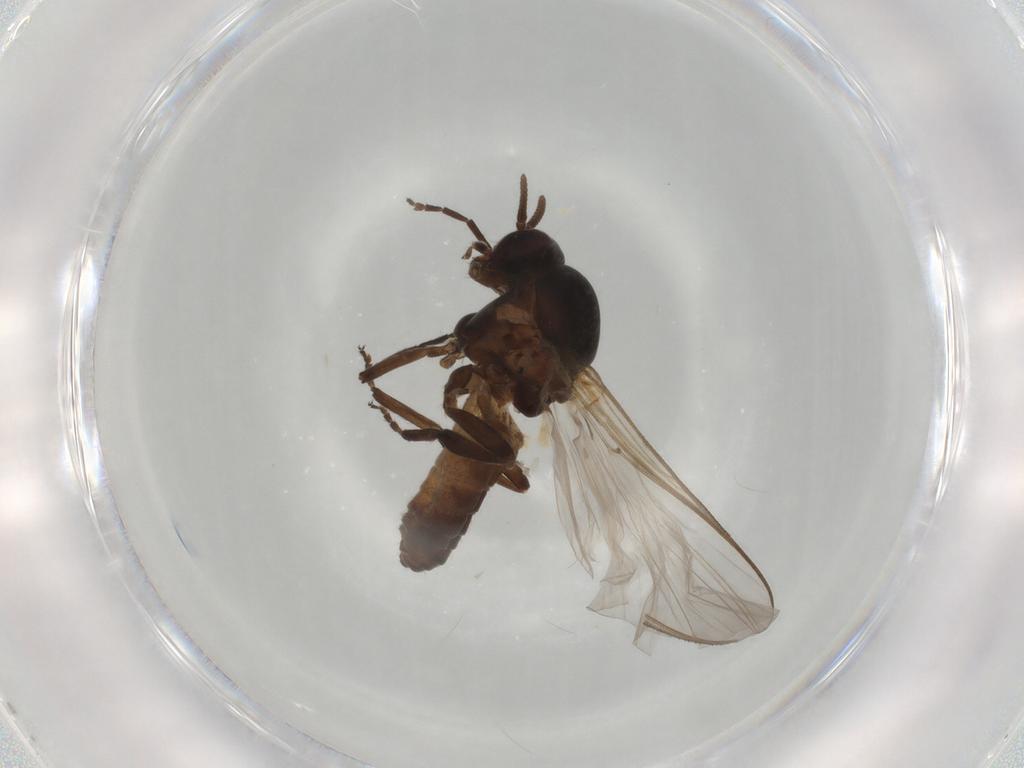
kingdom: Animalia
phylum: Arthropoda
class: Insecta
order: Diptera
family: Simuliidae
